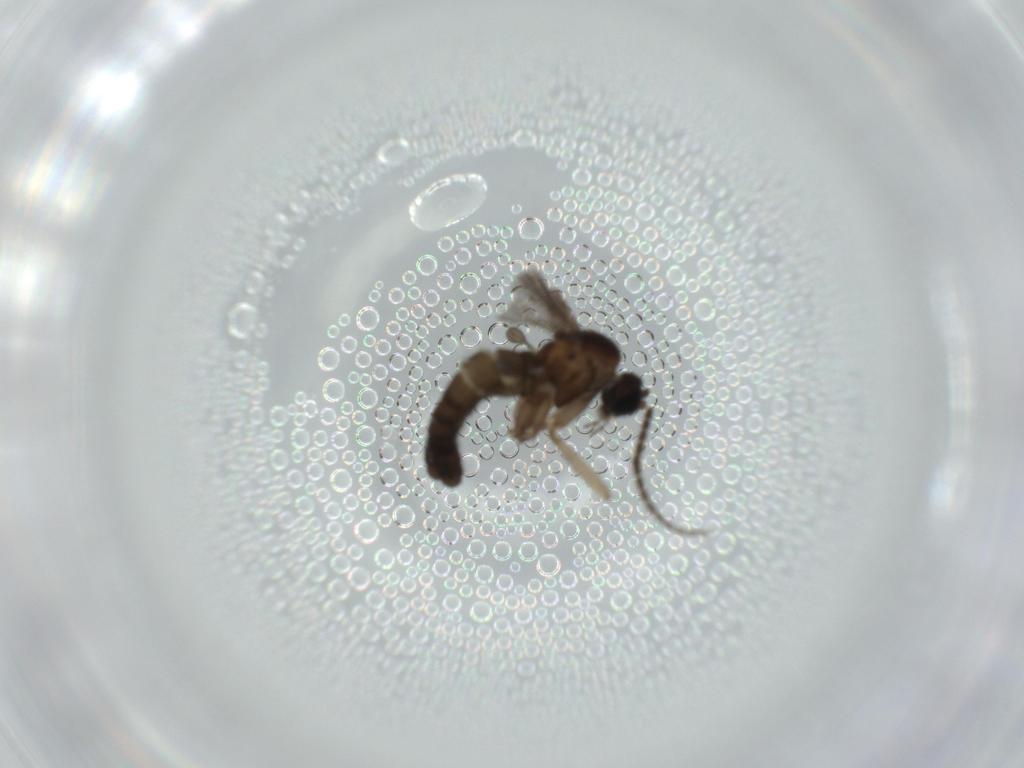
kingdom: Animalia
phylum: Arthropoda
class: Insecta
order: Diptera
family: Sciaridae
